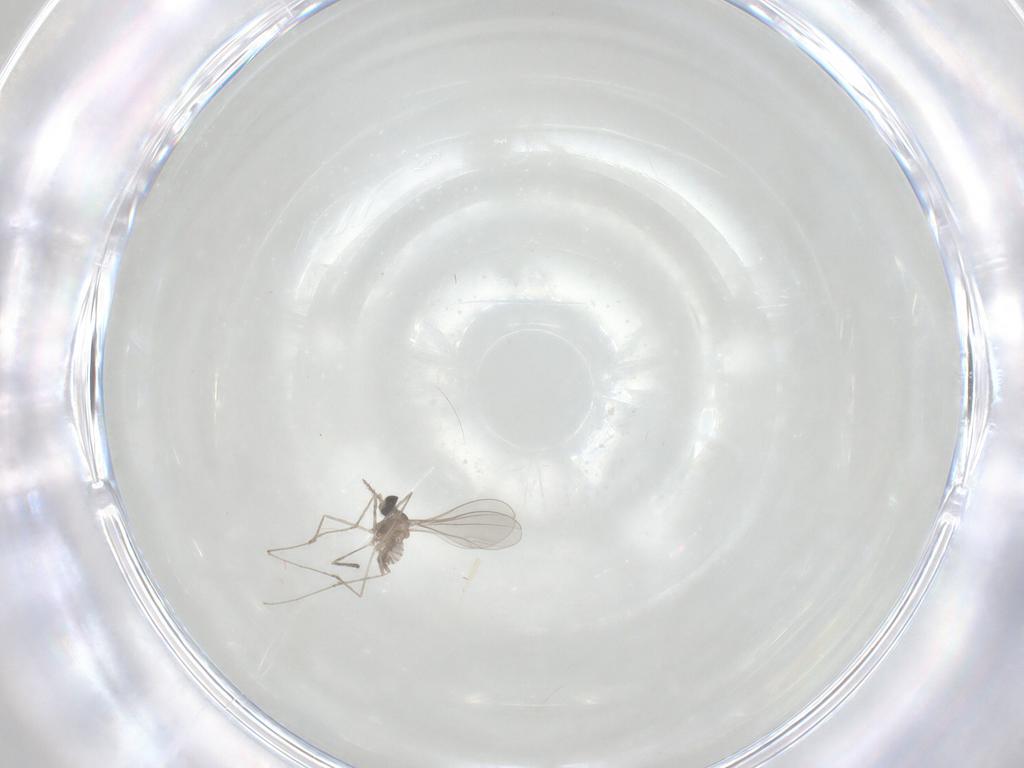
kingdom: Animalia
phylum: Arthropoda
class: Insecta
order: Diptera
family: Cecidomyiidae
